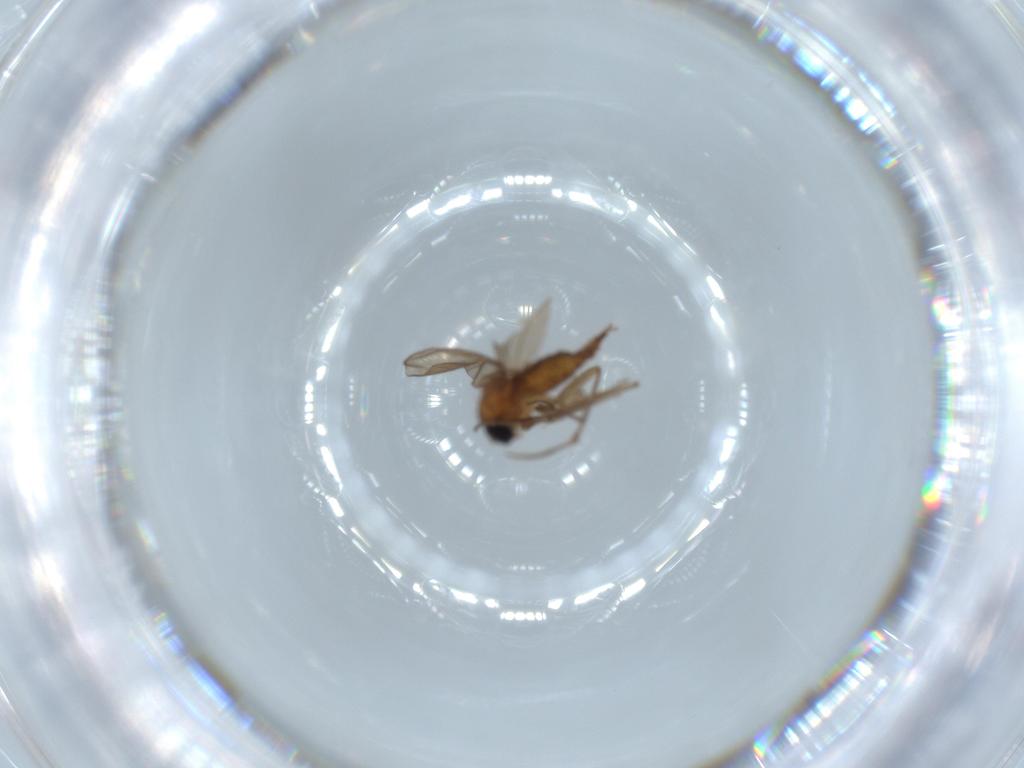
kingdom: Animalia
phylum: Arthropoda
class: Insecta
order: Diptera
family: Sciaridae
